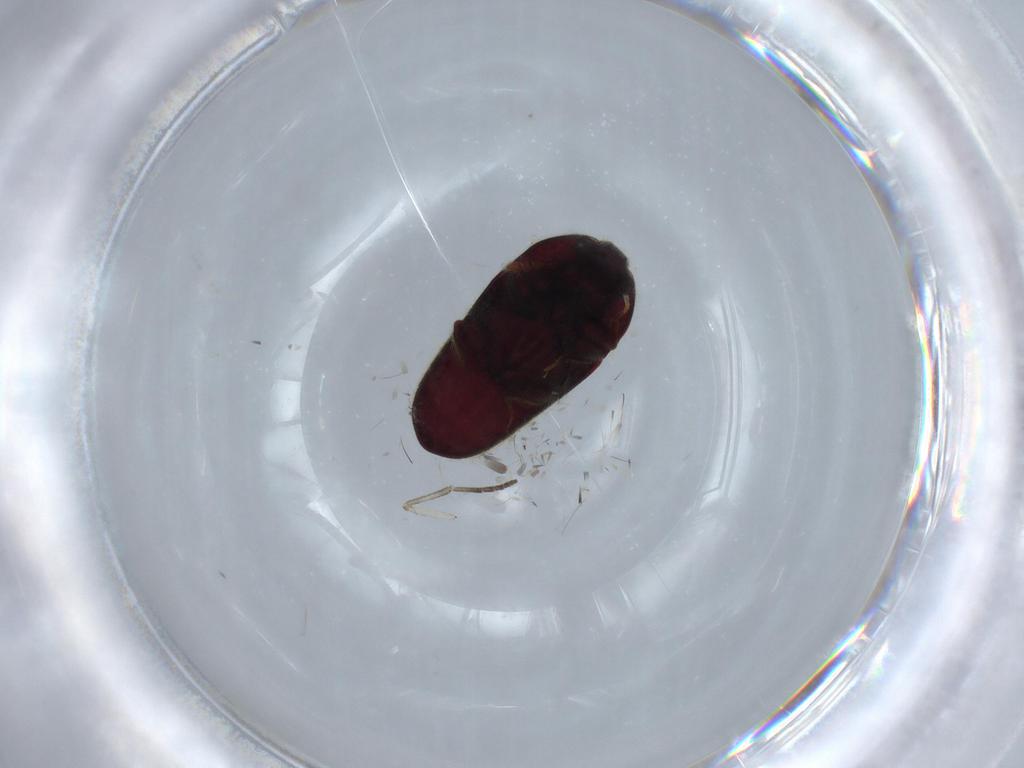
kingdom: Animalia
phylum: Arthropoda
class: Insecta
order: Coleoptera
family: Throscidae
